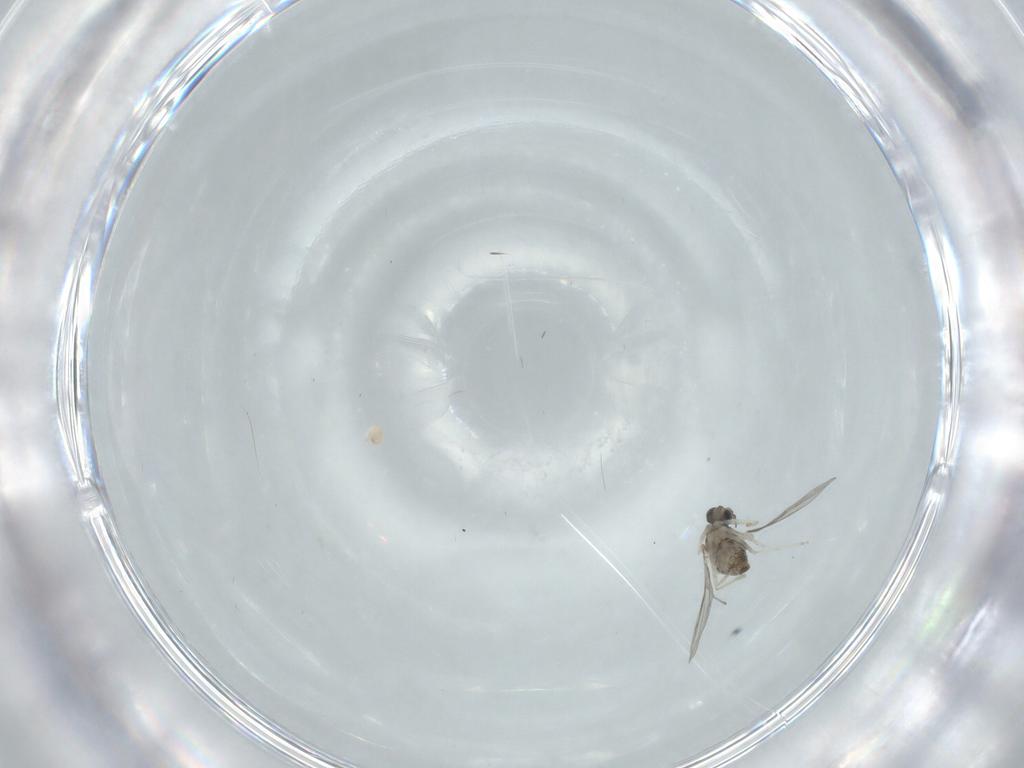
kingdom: Animalia
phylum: Arthropoda
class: Insecta
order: Diptera
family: Cecidomyiidae
